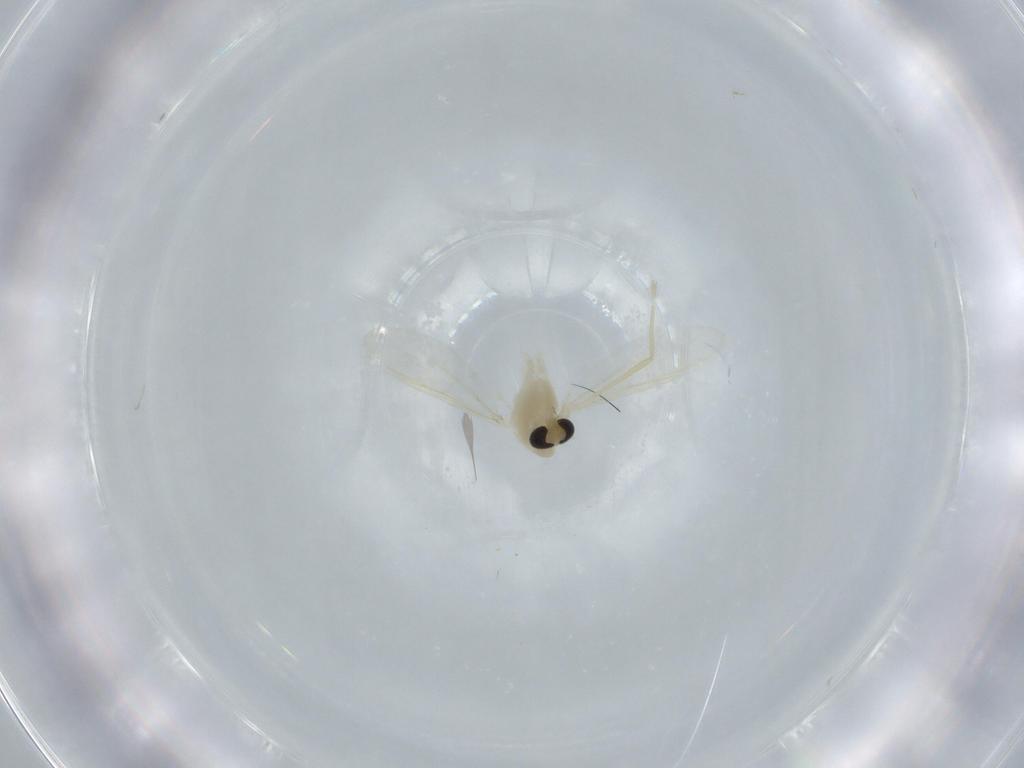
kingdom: Animalia
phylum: Arthropoda
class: Insecta
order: Diptera
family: Chironomidae
